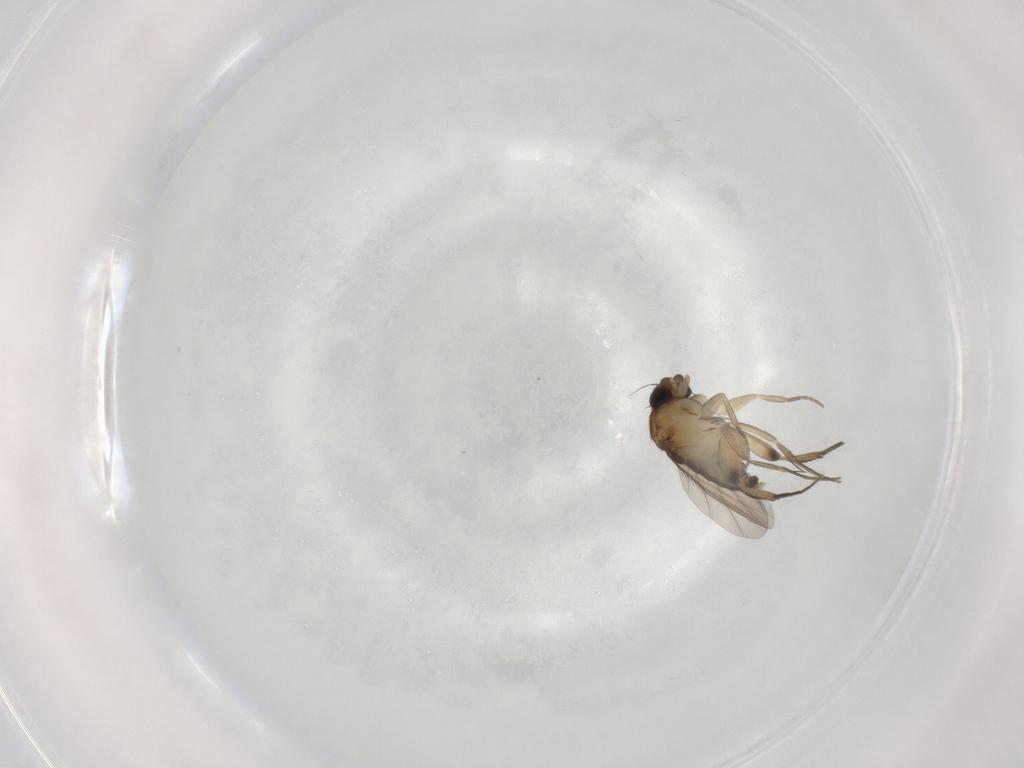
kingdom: Animalia
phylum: Arthropoda
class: Insecta
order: Diptera
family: Phoridae
